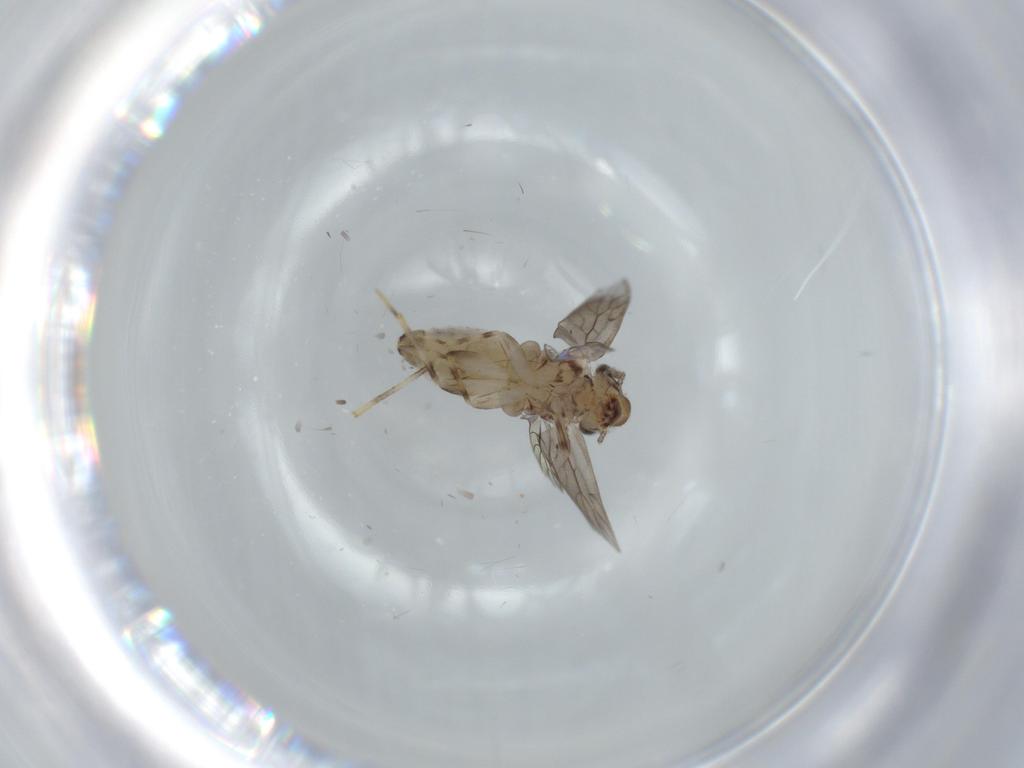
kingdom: Animalia
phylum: Arthropoda
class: Insecta
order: Psocodea
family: Lepidopsocidae
